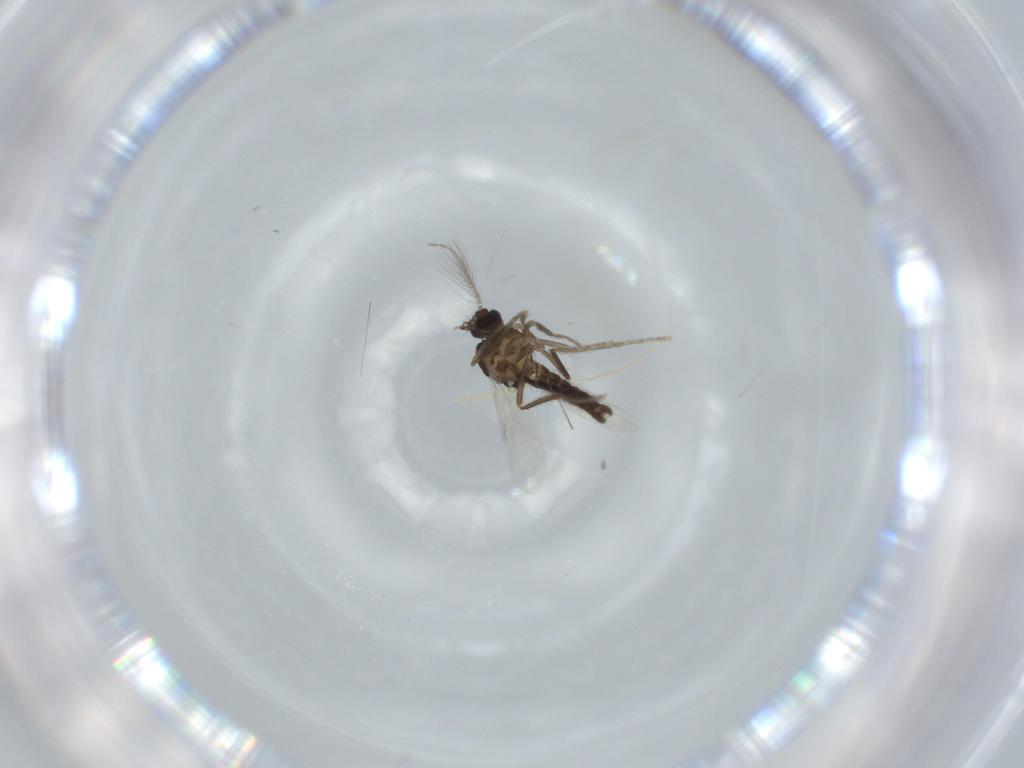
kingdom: Animalia
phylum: Arthropoda
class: Insecta
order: Diptera
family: Ceratopogonidae
